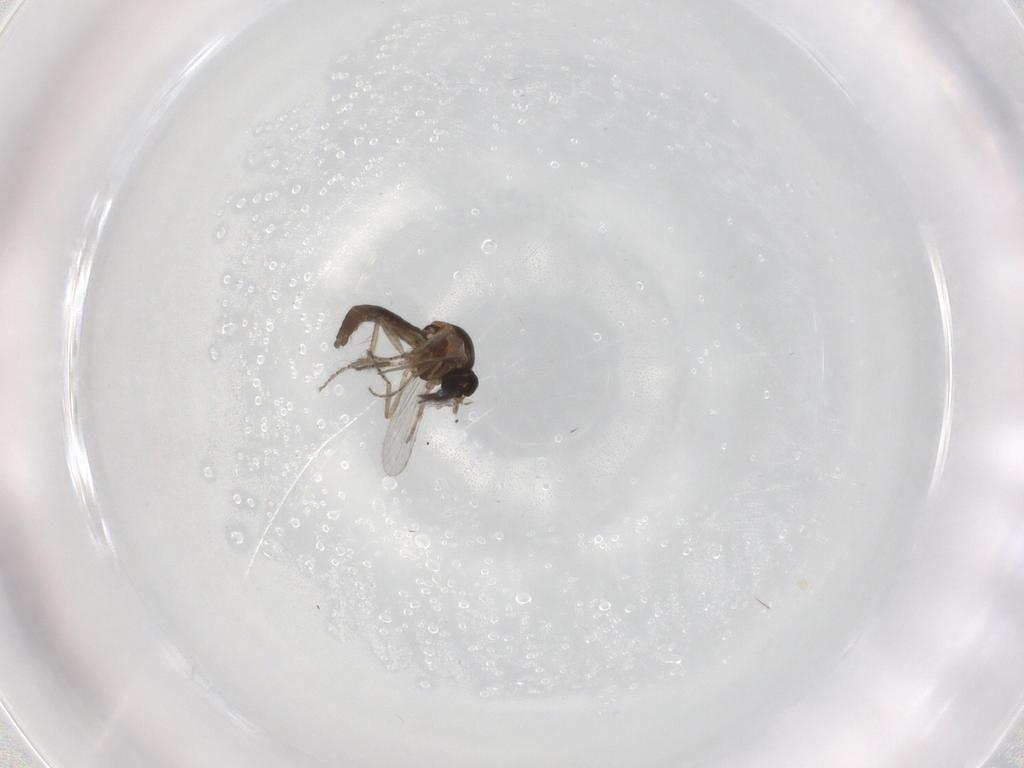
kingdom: Animalia
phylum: Arthropoda
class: Insecta
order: Diptera
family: Ceratopogonidae
